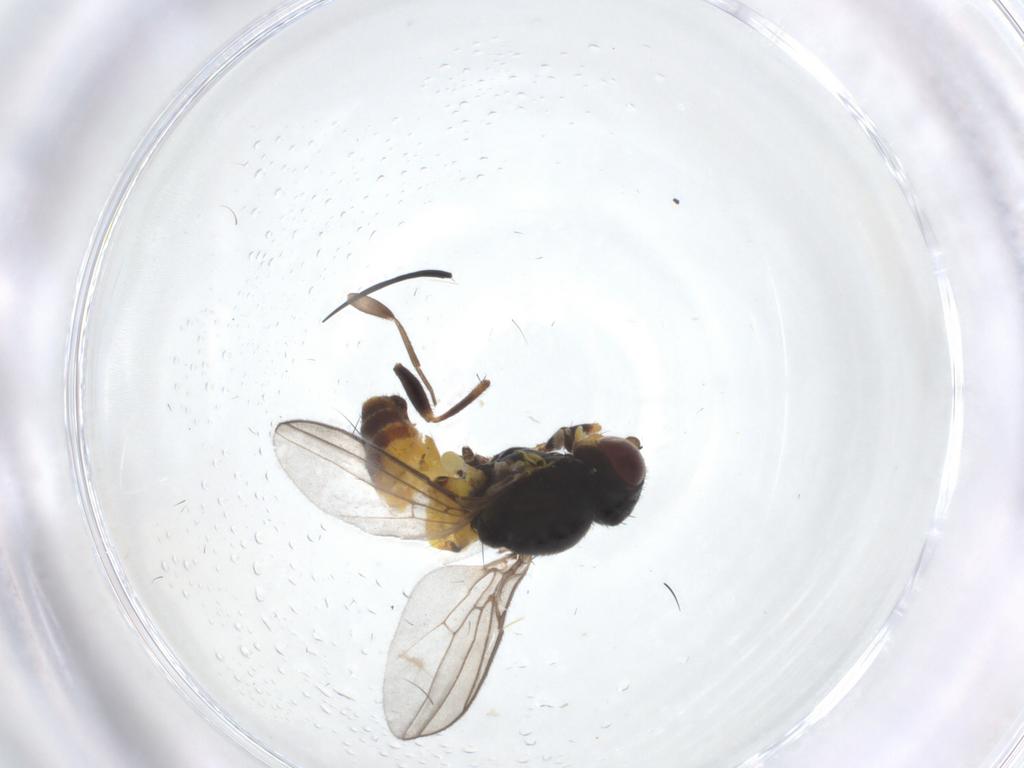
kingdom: Animalia
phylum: Arthropoda
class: Insecta
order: Diptera
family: Chloropidae
